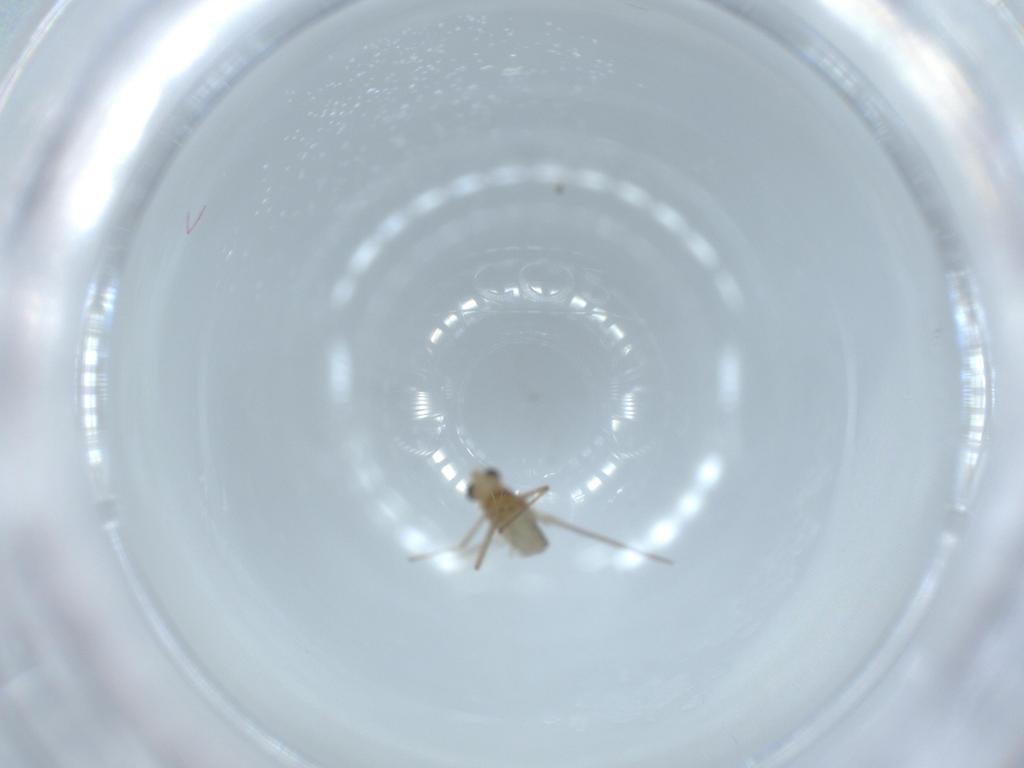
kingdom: Animalia
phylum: Arthropoda
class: Insecta
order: Diptera
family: Chironomidae
